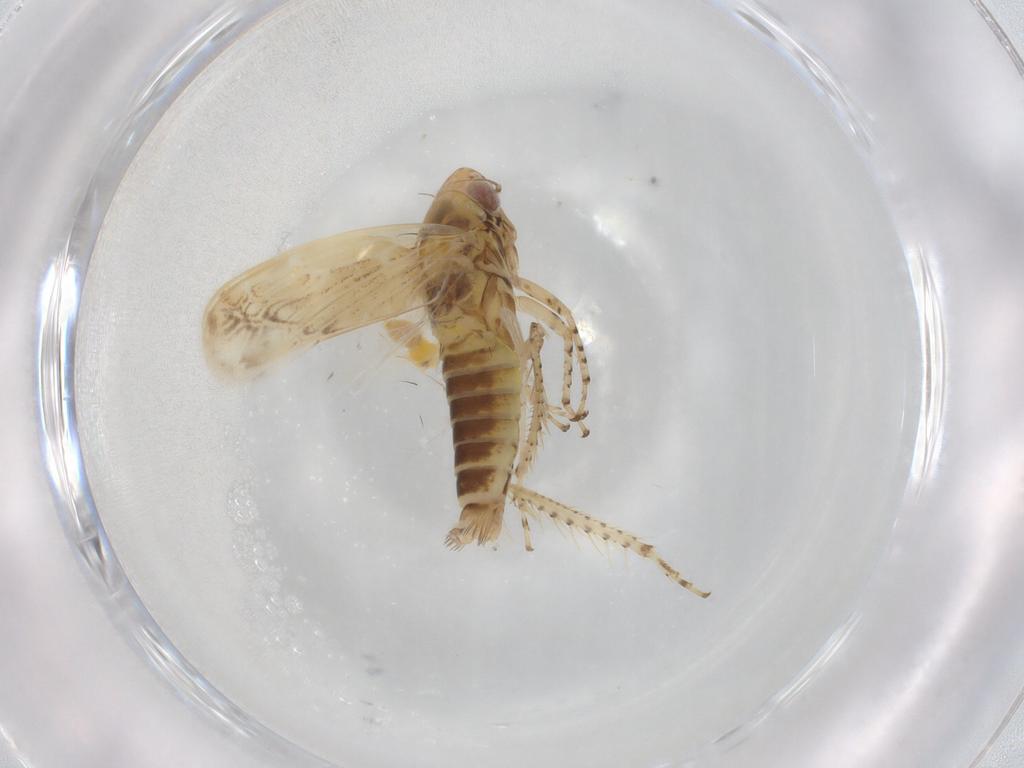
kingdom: Animalia
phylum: Arthropoda
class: Insecta
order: Hemiptera
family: Cicadellidae
